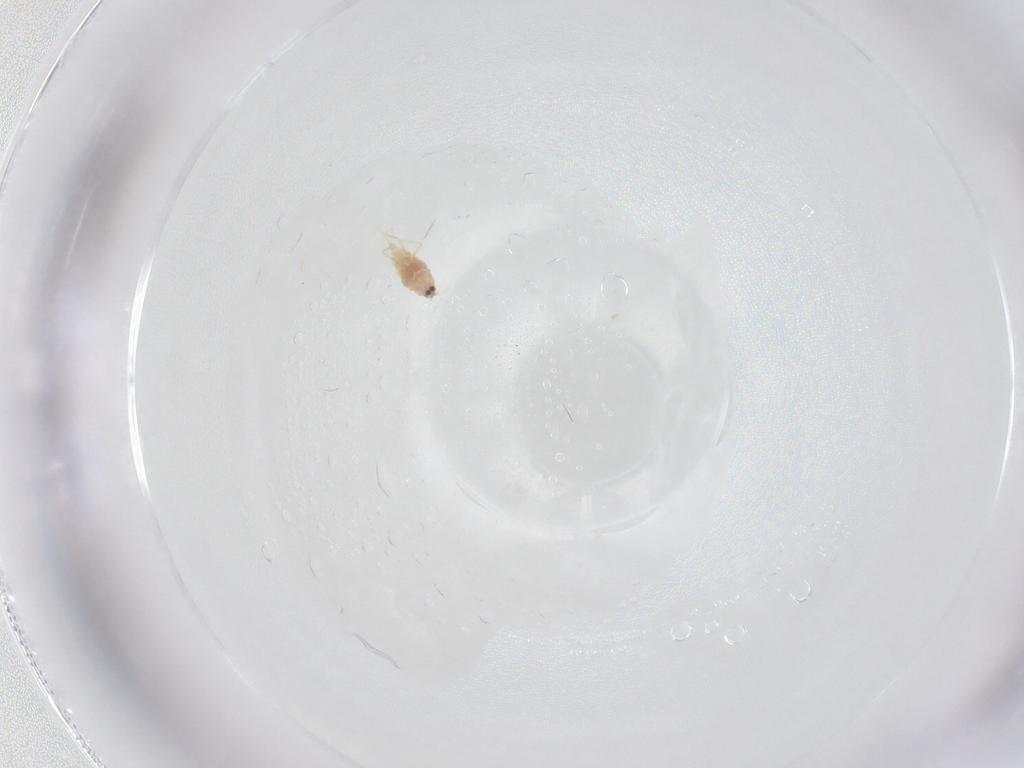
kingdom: Animalia
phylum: Arthropoda
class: Insecta
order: Hemiptera
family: Diaspididae
